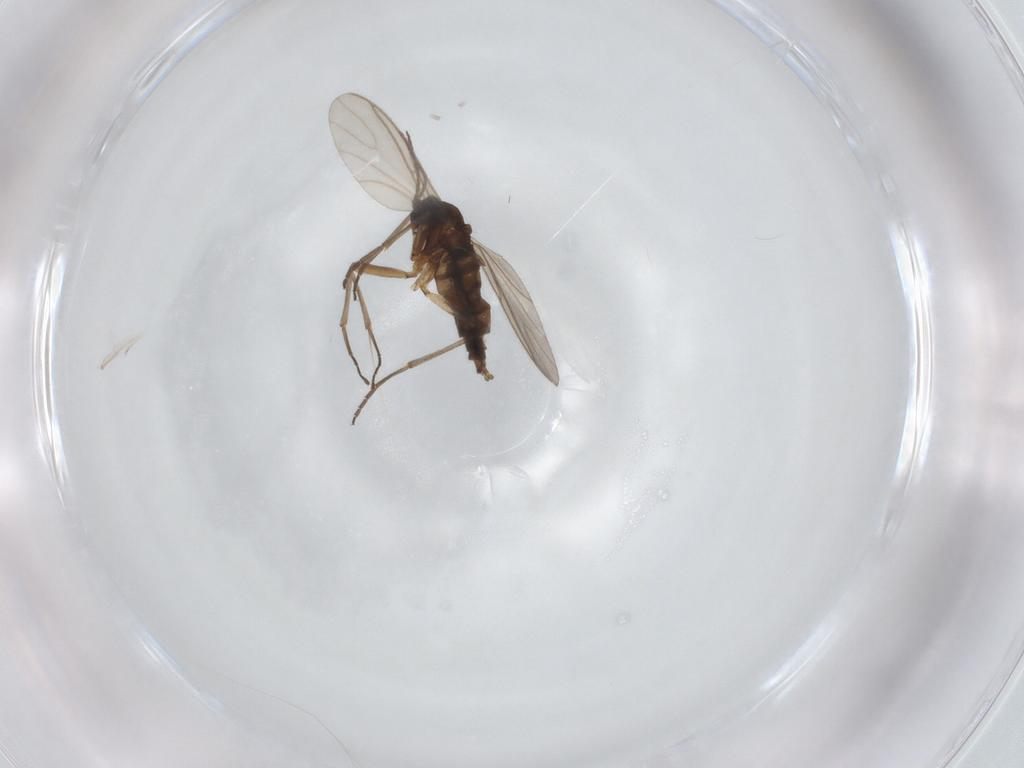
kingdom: Animalia
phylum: Arthropoda
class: Insecta
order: Diptera
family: Sciaridae
